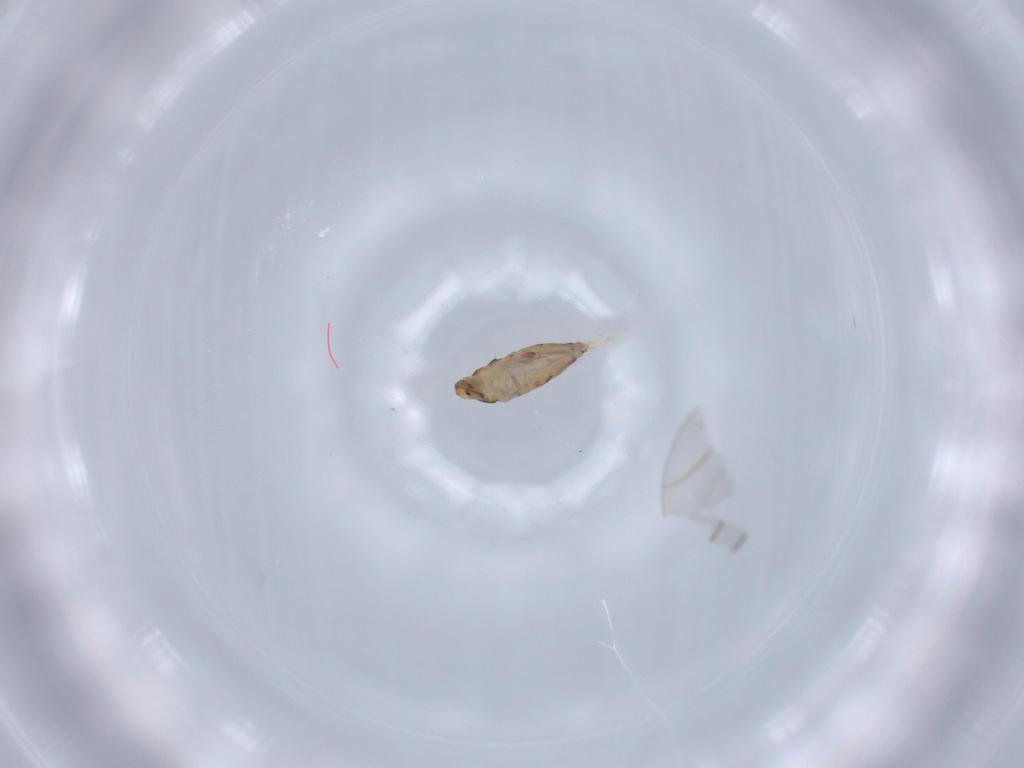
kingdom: Animalia
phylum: Arthropoda
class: Collembola
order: Entomobryomorpha
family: Entomobryidae
